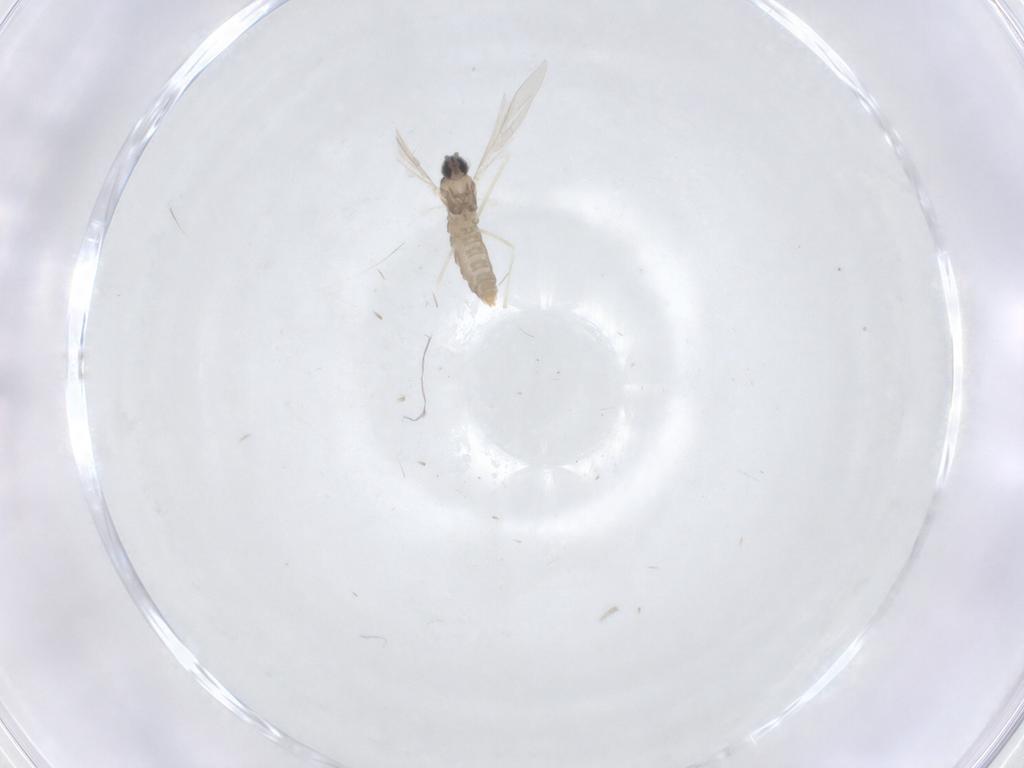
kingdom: Animalia
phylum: Arthropoda
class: Insecta
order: Diptera
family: Cecidomyiidae
